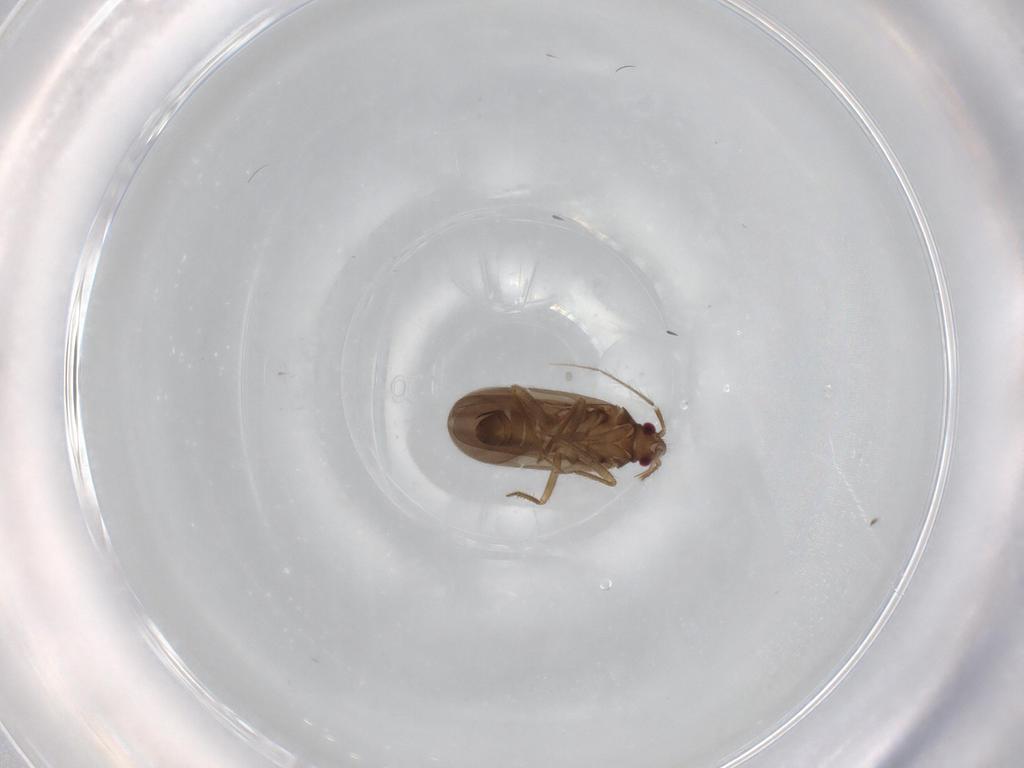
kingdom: Animalia
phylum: Arthropoda
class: Insecta
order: Hemiptera
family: Ceratocombidae
